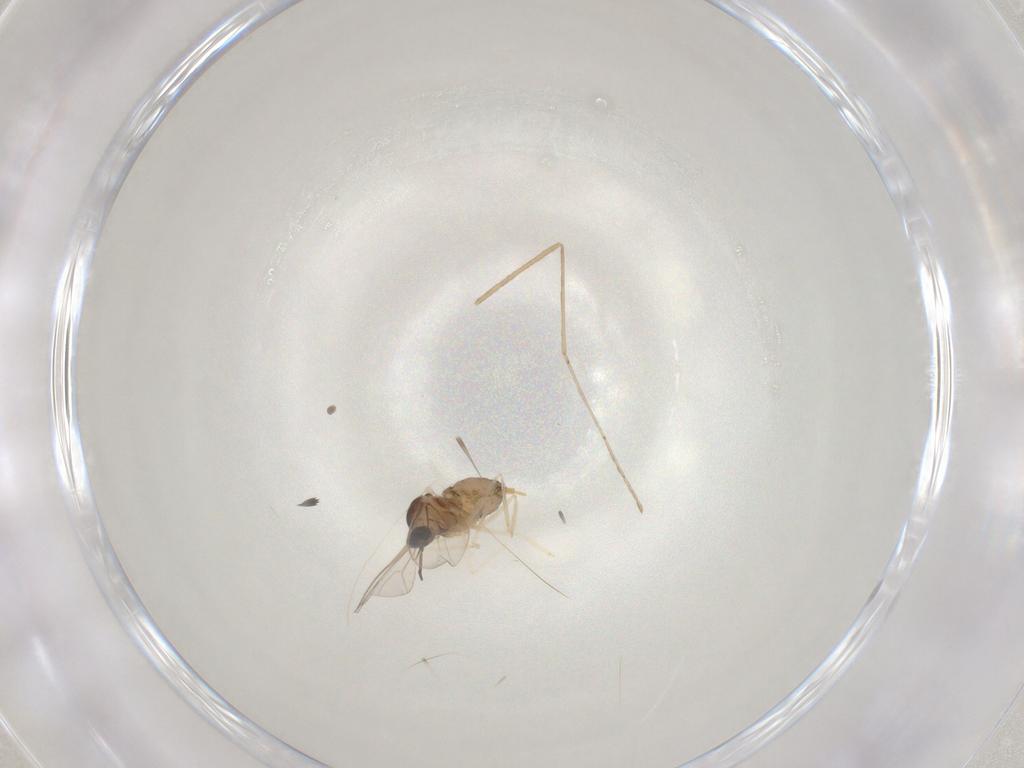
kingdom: Animalia
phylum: Arthropoda
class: Insecta
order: Diptera
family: Cecidomyiidae
